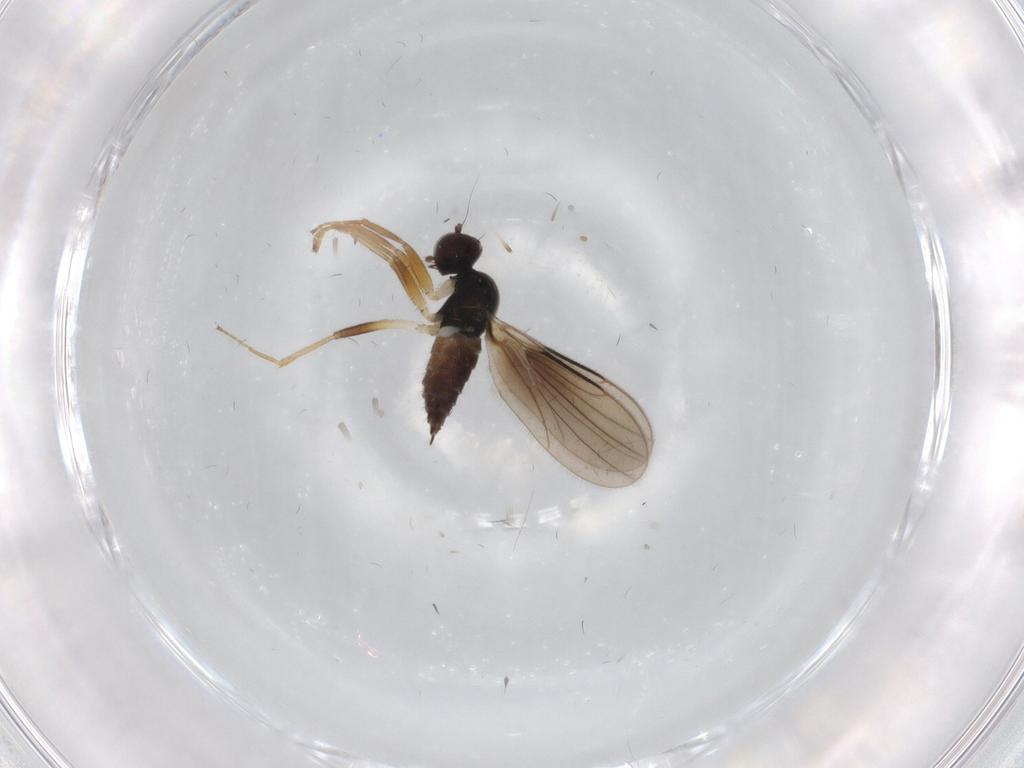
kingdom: Animalia
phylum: Arthropoda
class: Insecta
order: Diptera
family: Hybotidae
